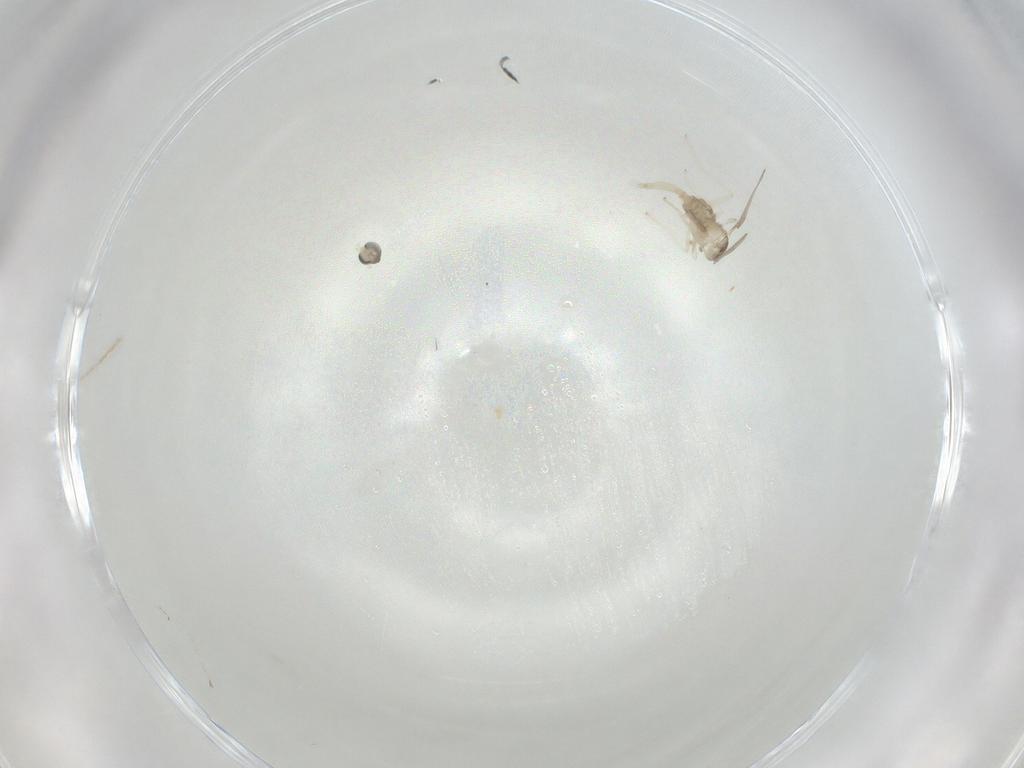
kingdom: Animalia
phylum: Arthropoda
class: Insecta
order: Diptera
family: Cecidomyiidae
